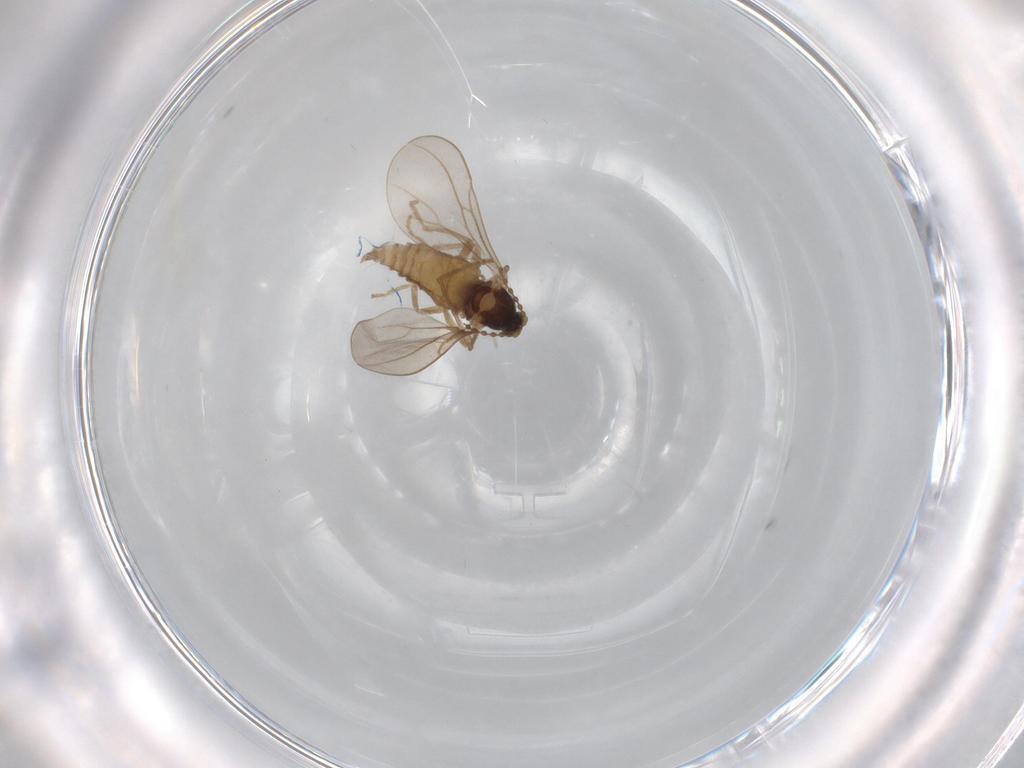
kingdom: Animalia
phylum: Arthropoda
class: Insecta
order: Diptera
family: Cecidomyiidae
